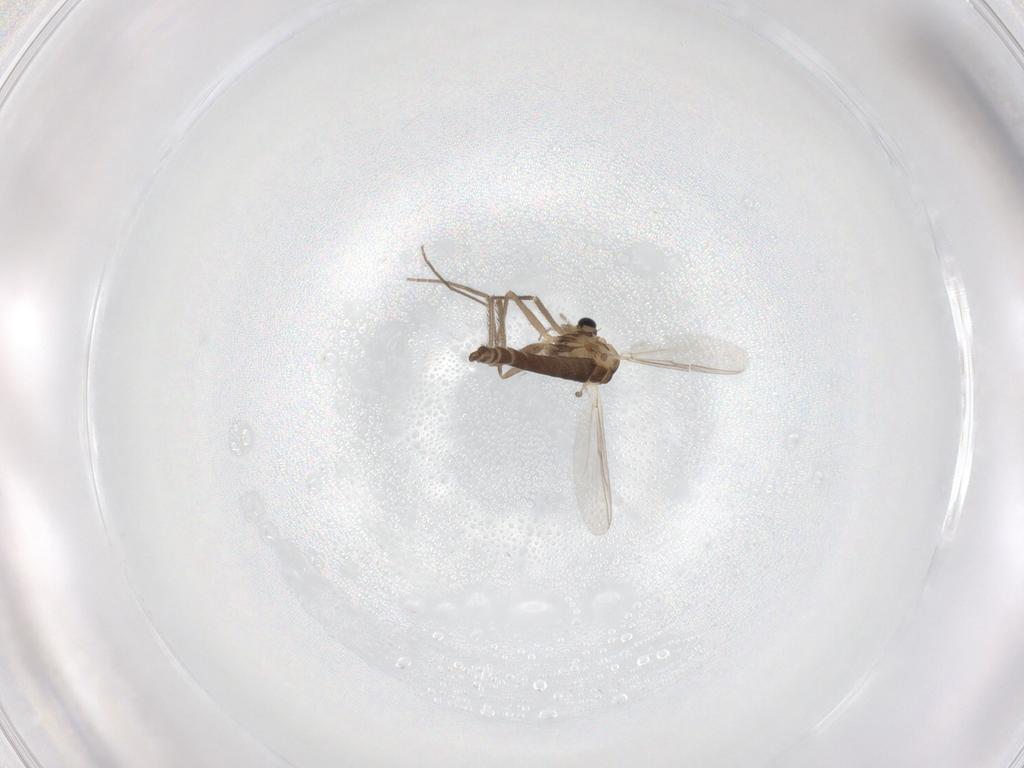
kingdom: Animalia
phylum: Arthropoda
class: Insecta
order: Diptera
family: Chironomidae
